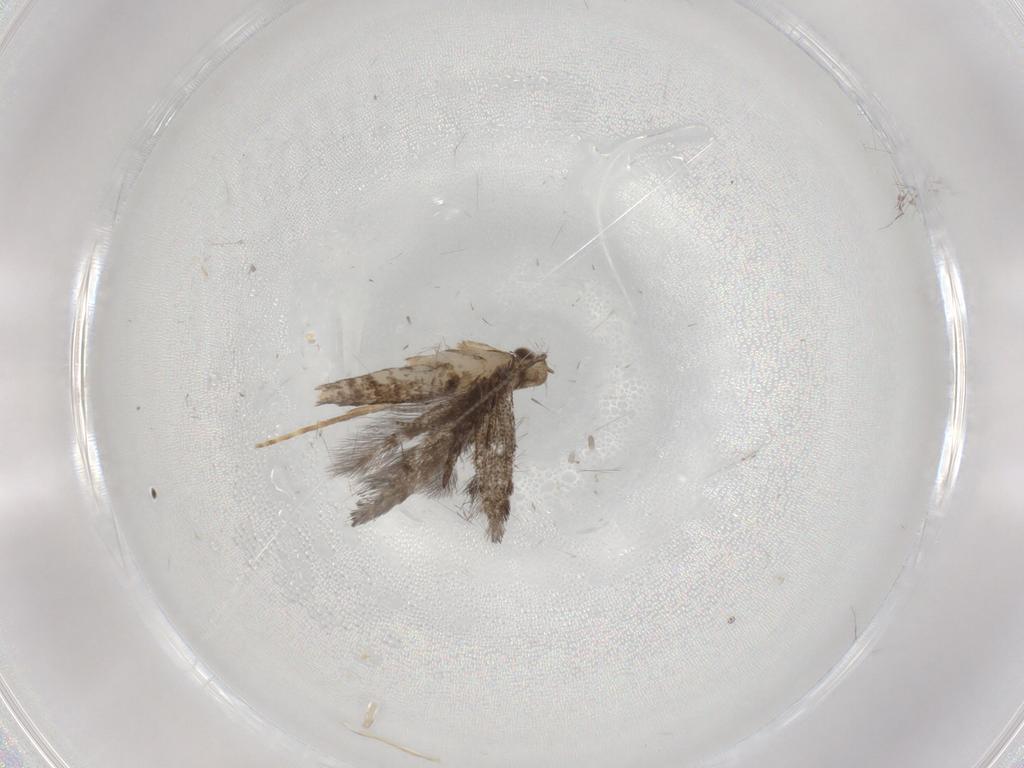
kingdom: Animalia
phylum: Arthropoda
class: Insecta
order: Lepidoptera
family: Gracillariidae
